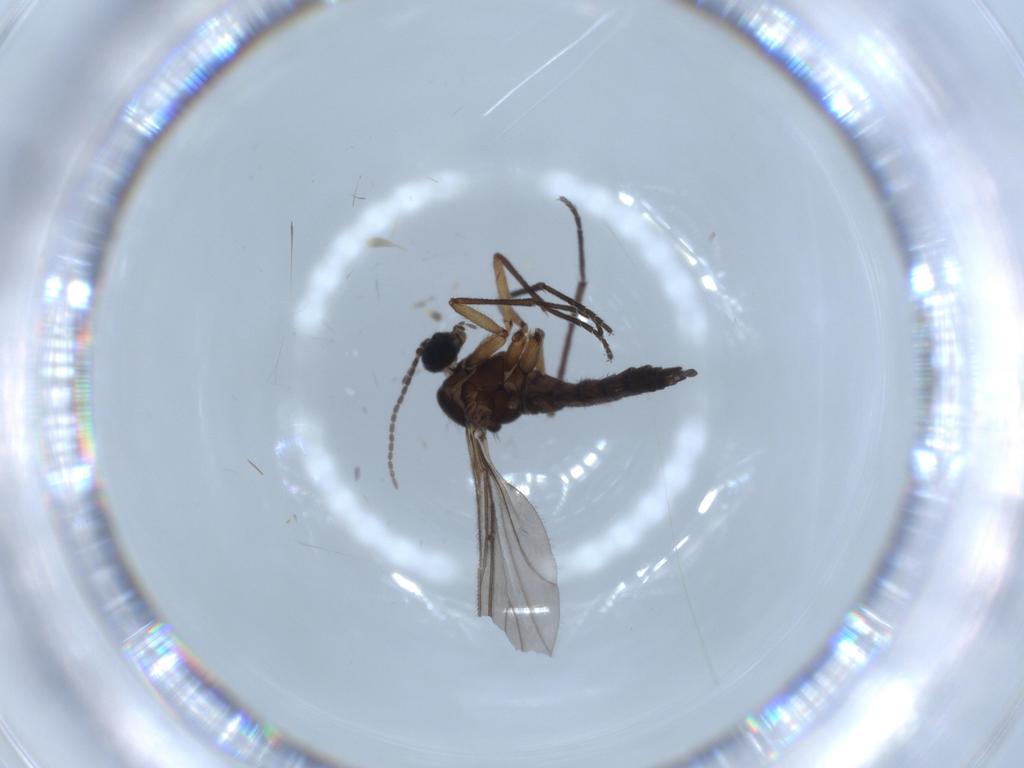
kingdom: Animalia
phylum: Arthropoda
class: Insecta
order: Diptera
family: Sciaridae
